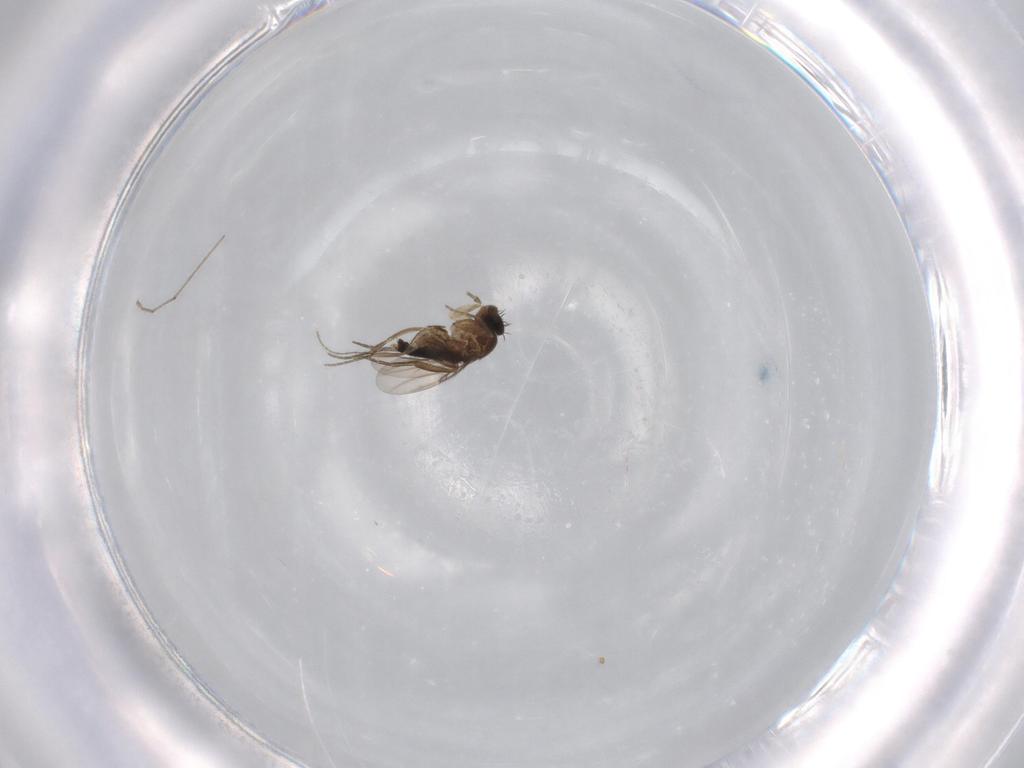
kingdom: Animalia
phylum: Arthropoda
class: Insecta
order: Diptera
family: Phoridae
